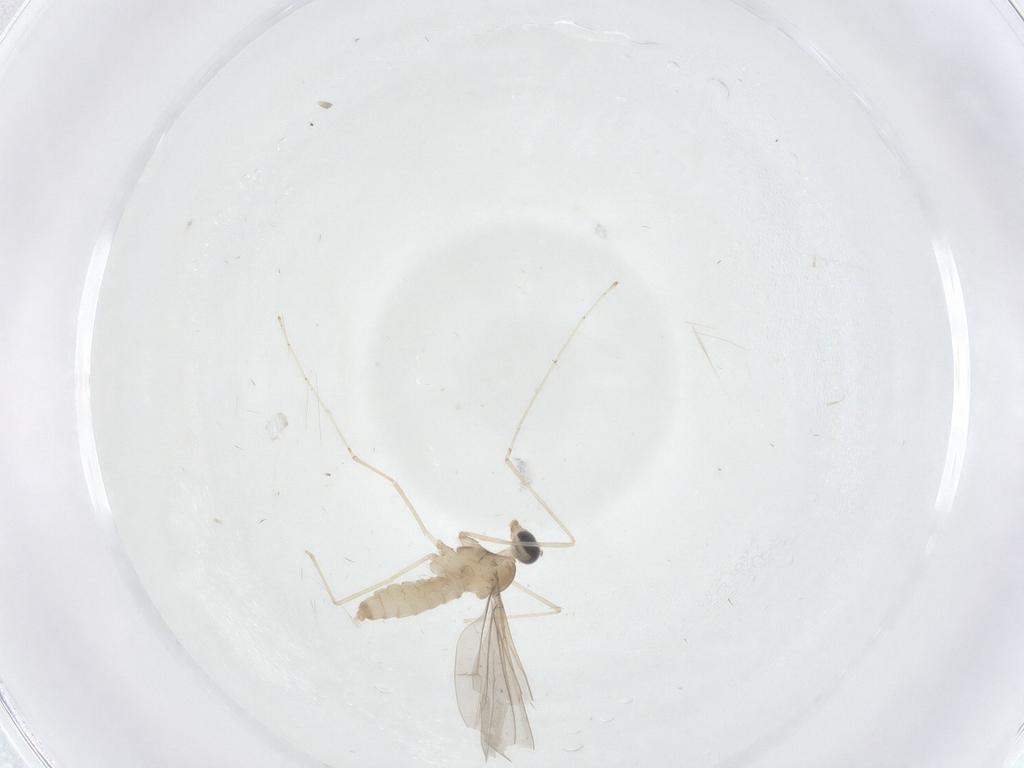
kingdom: Animalia
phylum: Arthropoda
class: Insecta
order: Diptera
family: Cecidomyiidae
